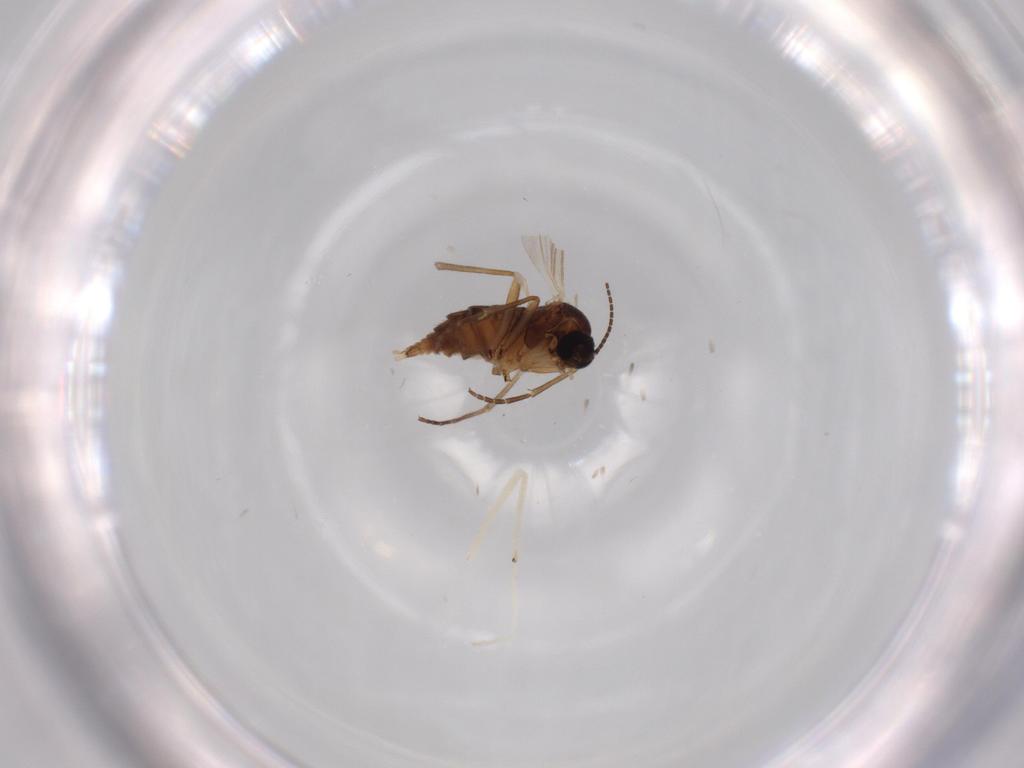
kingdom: Animalia
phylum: Arthropoda
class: Insecta
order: Diptera
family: Sciaridae
